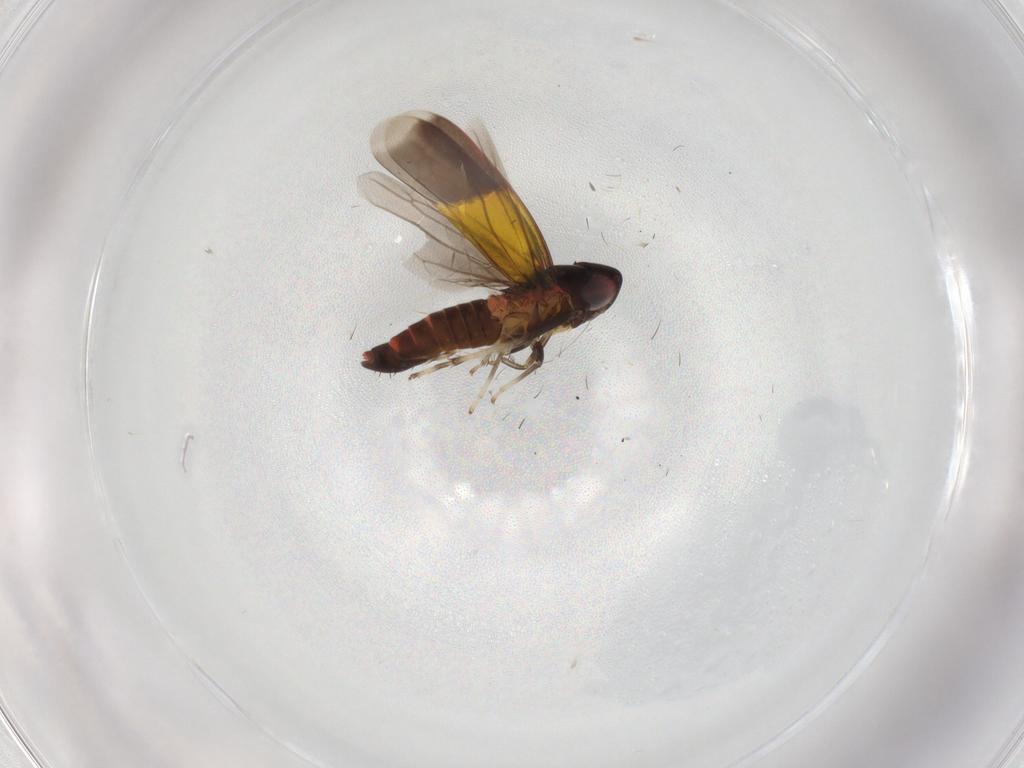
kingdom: Animalia
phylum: Arthropoda
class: Insecta
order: Hemiptera
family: Cicadellidae
